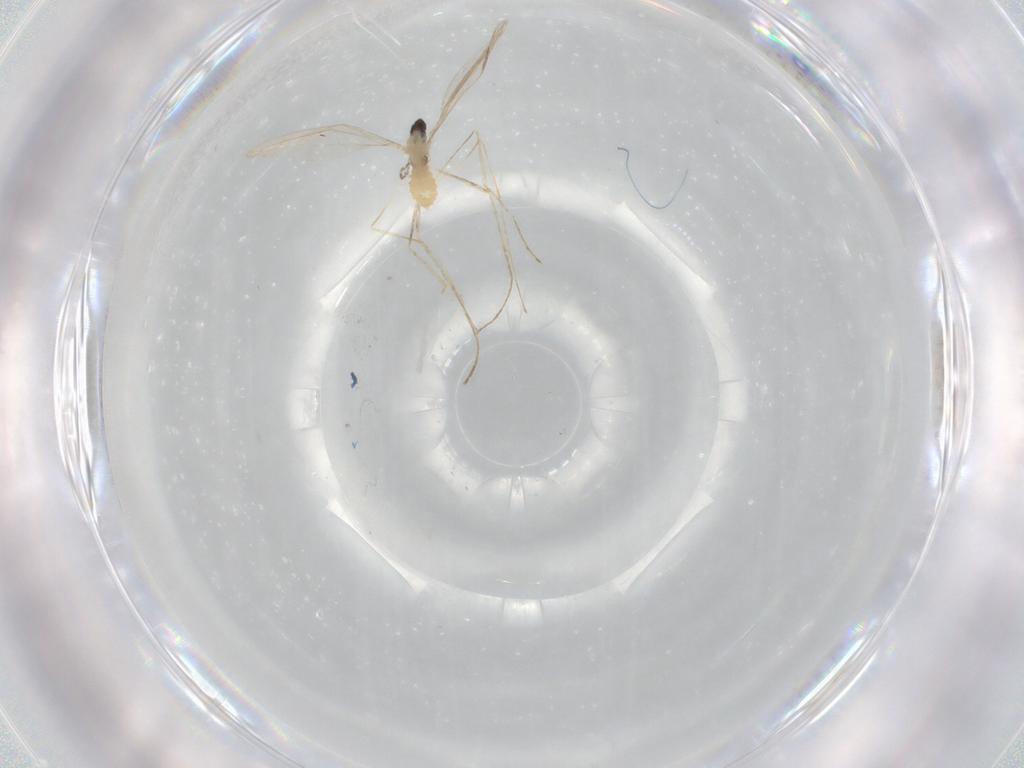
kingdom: Animalia
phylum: Arthropoda
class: Insecta
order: Diptera
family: Cecidomyiidae
